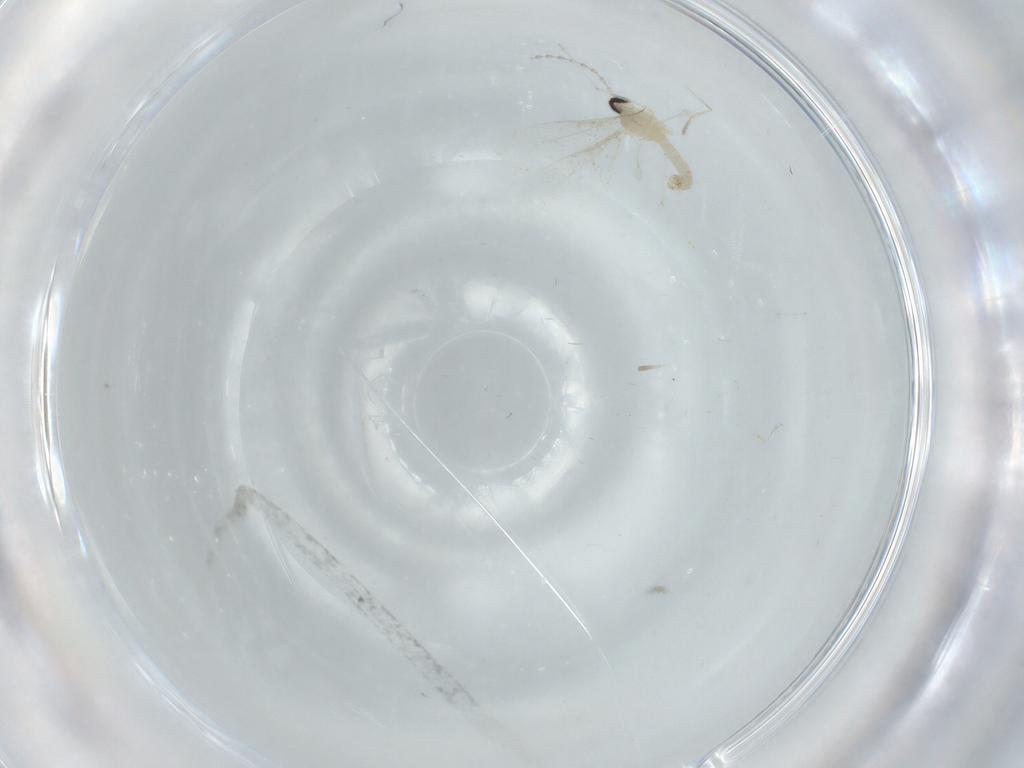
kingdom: Animalia
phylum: Arthropoda
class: Insecta
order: Diptera
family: Cecidomyiidae
